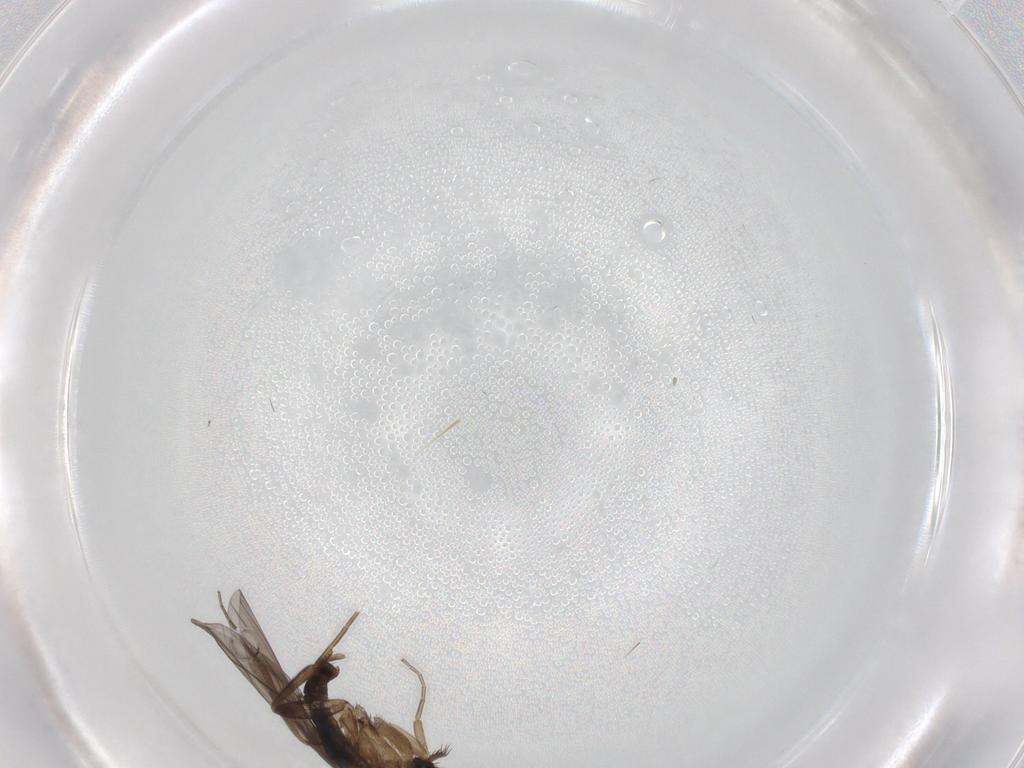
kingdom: Animalia
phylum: Arthropoda
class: Insecta
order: Diptera
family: Phoridae
